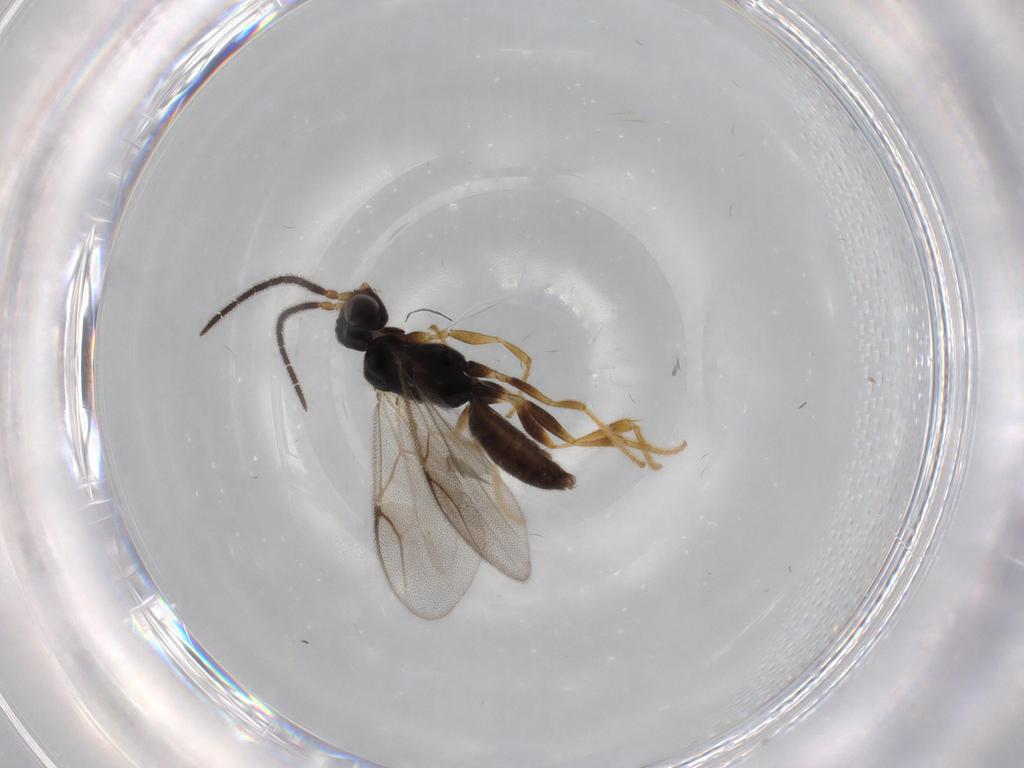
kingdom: Animalia
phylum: Arthropoda
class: Insecta
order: Hymenoptera
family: Dryinidae
